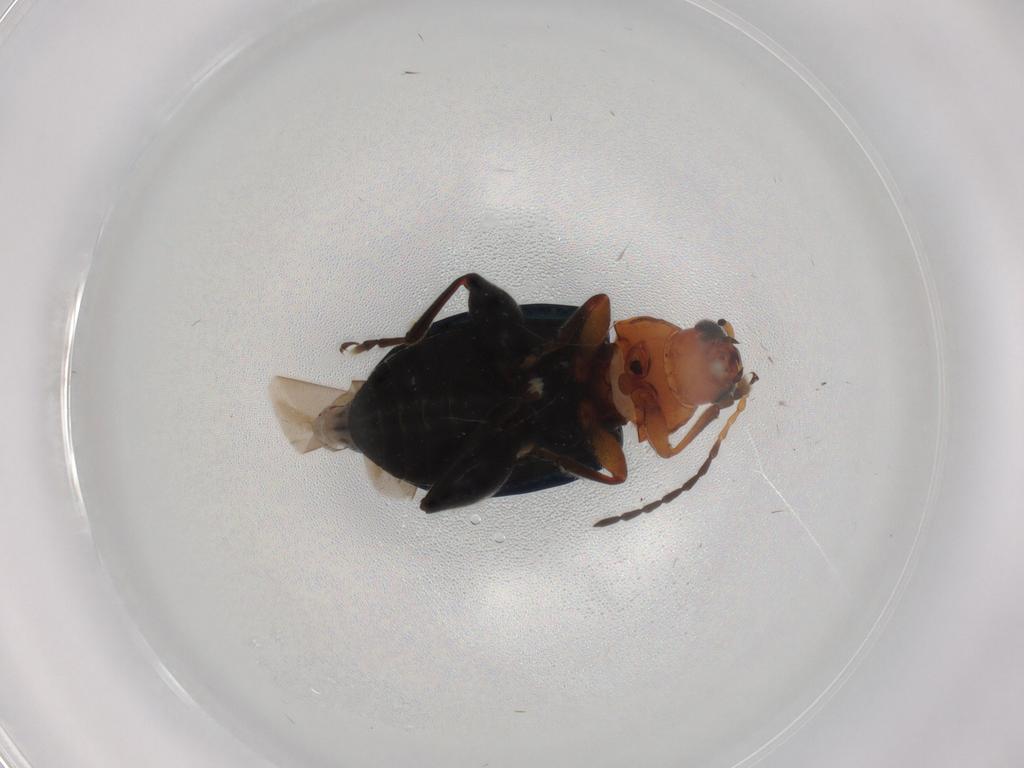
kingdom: Animalia
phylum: Arthropoda
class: Insecta
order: Coleoptera
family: Chrysomelidae
